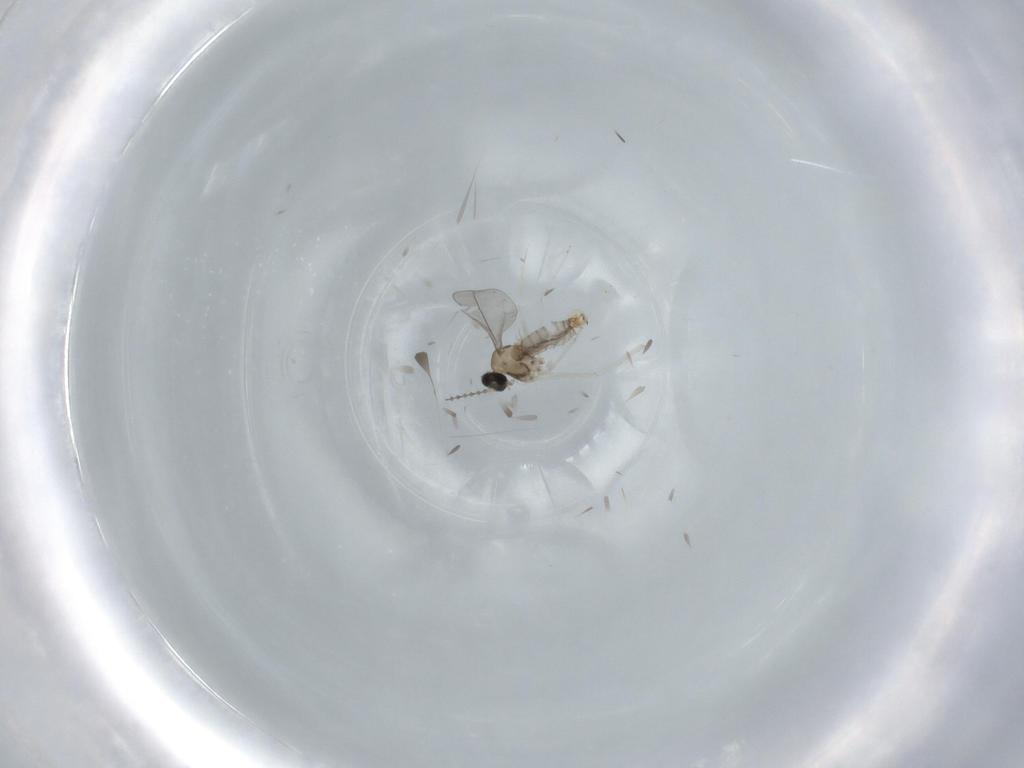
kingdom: Animalia
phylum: Arthropoda
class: Insecta
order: Diptera
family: Cecidomyiidae
